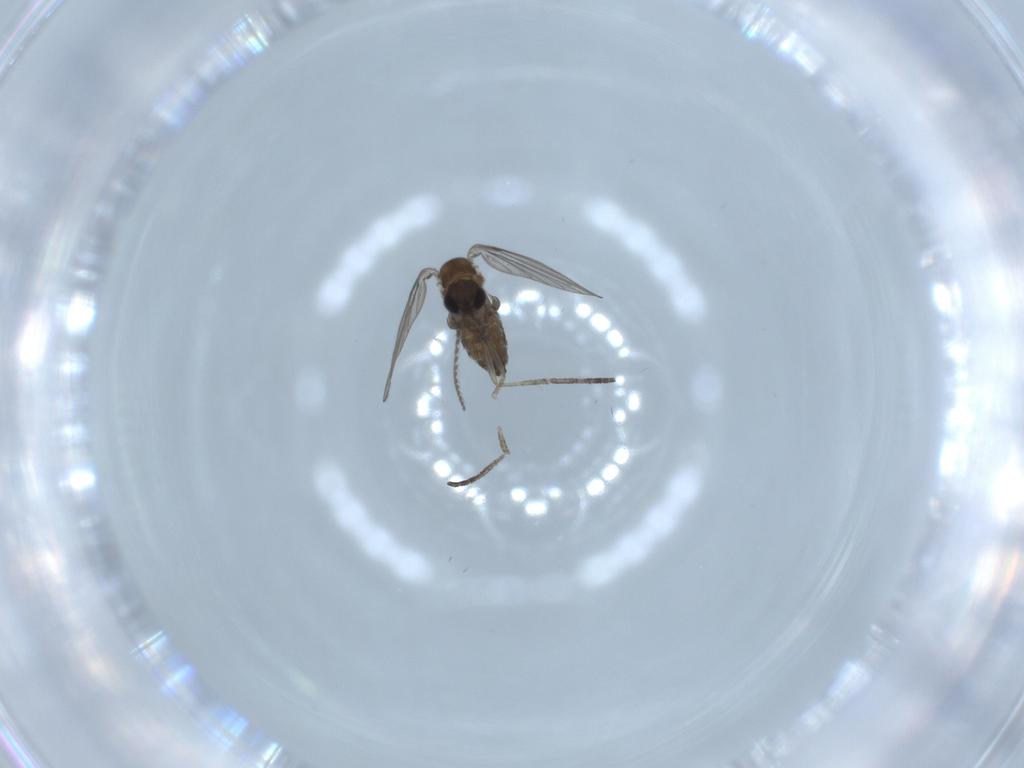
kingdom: Animalia
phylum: Arthropoda
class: Insecta
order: Diptera
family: Psychodidae
